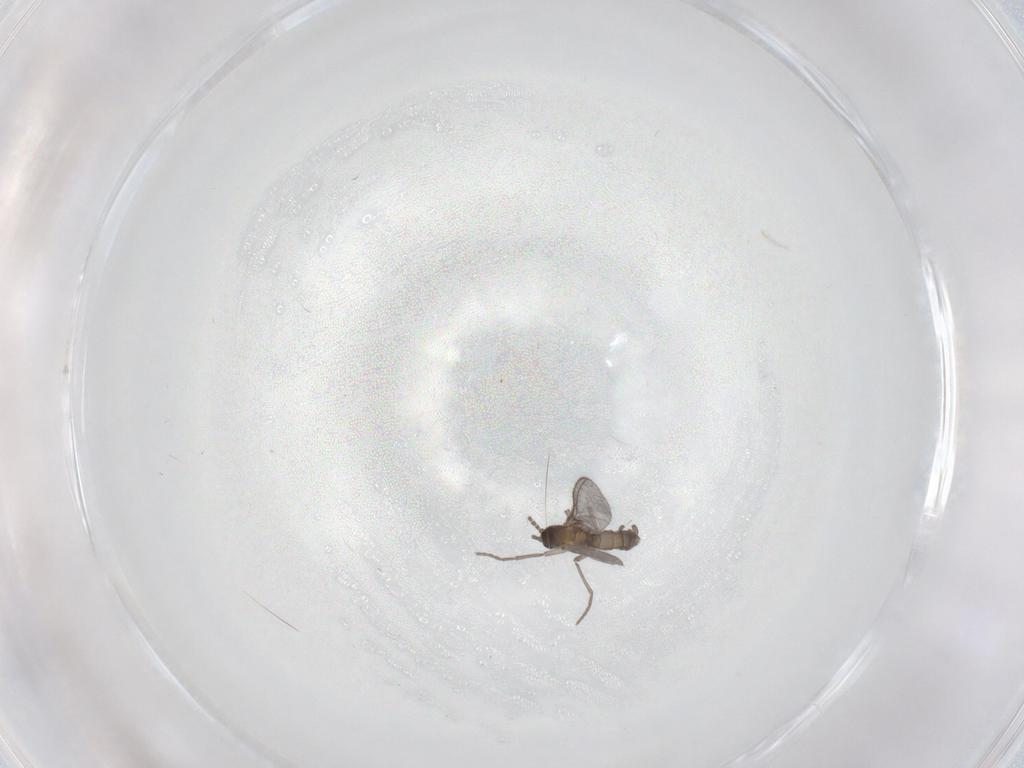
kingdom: Animalia
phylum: Arthropoda
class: Insecta
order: Diptera
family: Sciaridae
